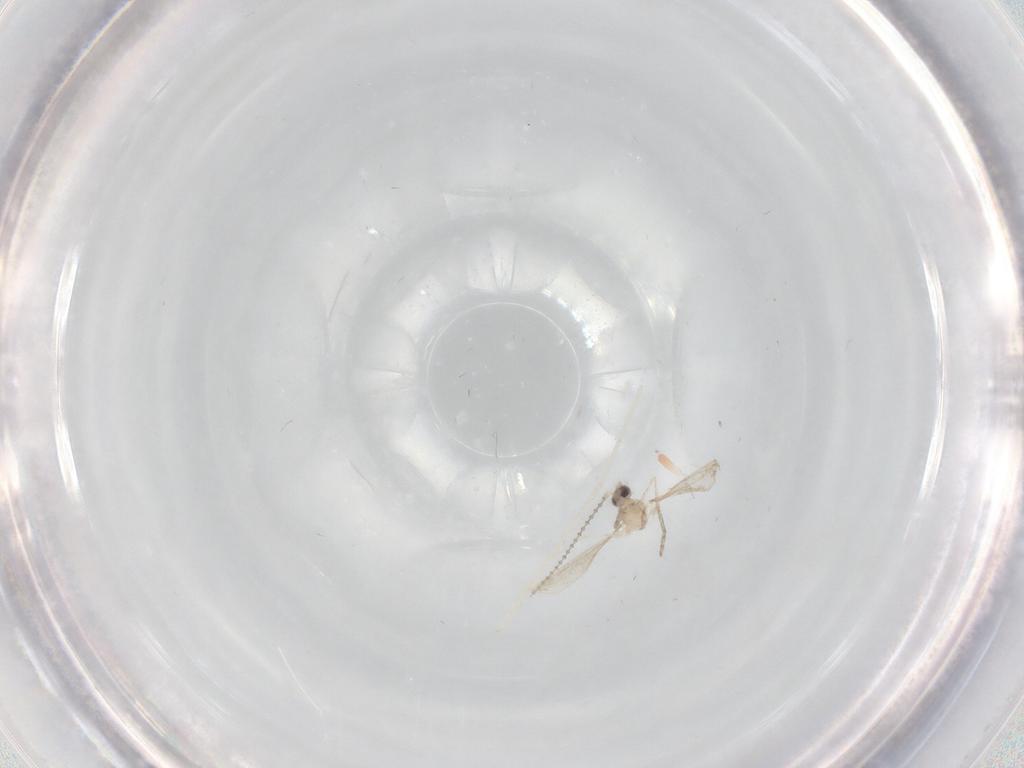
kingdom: Animalia
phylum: Arthropoda
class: Insecta
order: Diptera
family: Cecidomyiidae
